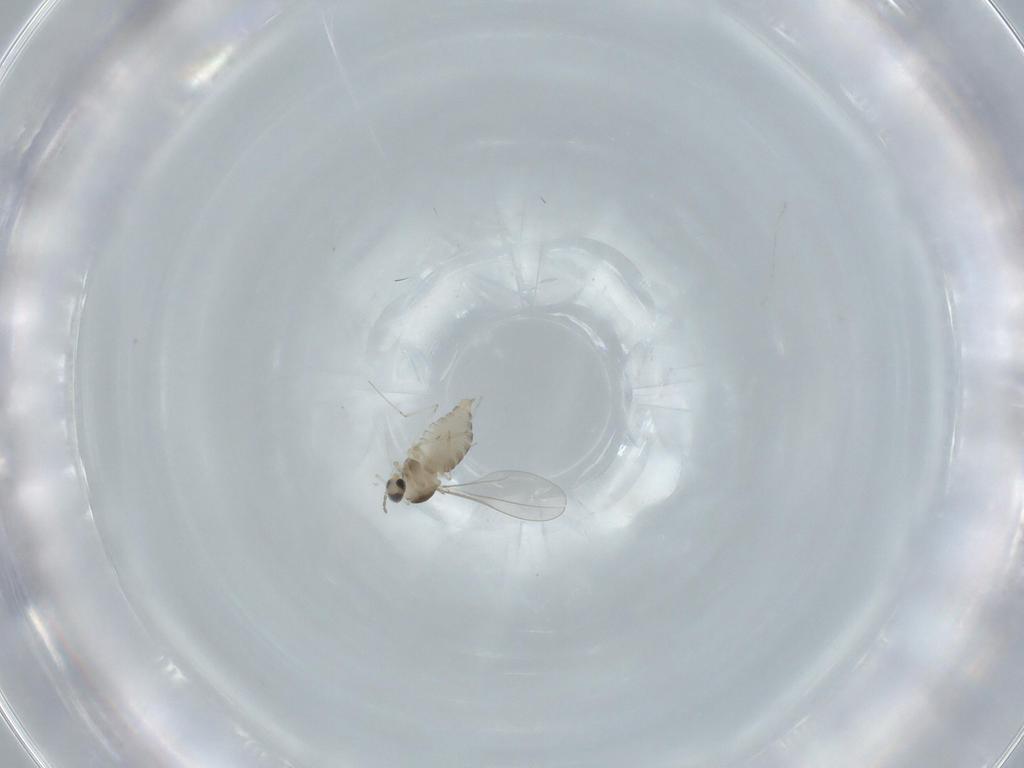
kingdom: Animalia
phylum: Arthropoda
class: Insecta
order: Diptera
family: Cecidomyiidae
